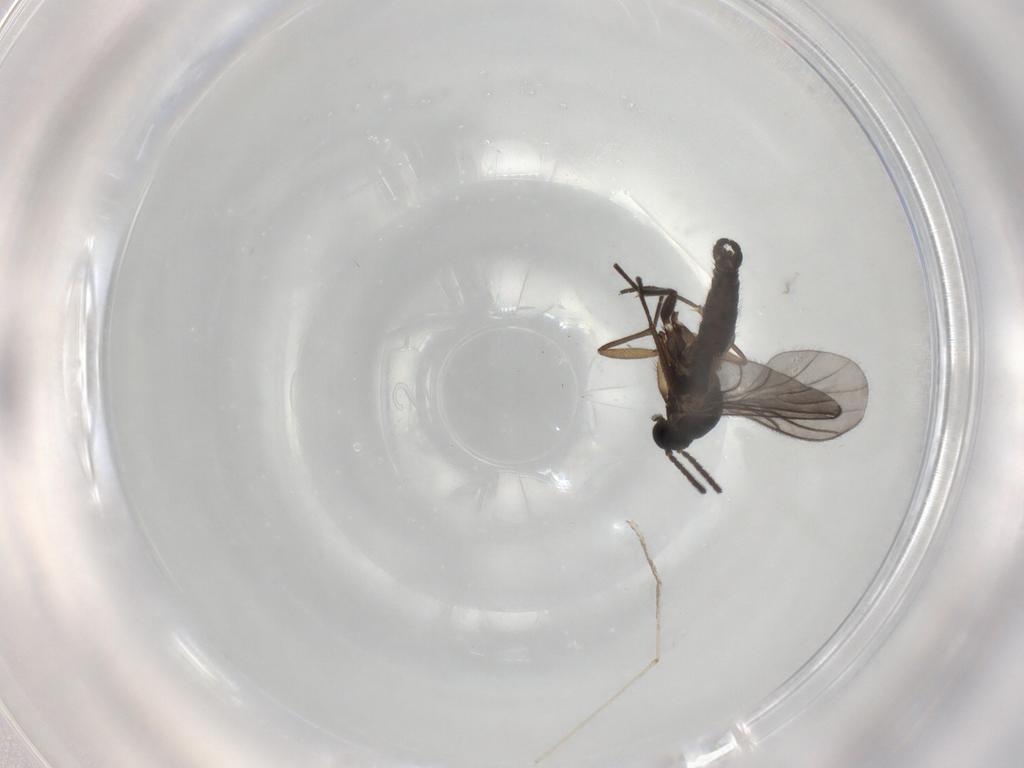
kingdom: Animalia
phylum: Arthropoda
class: Insecta
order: Diptera
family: Sciaridae
